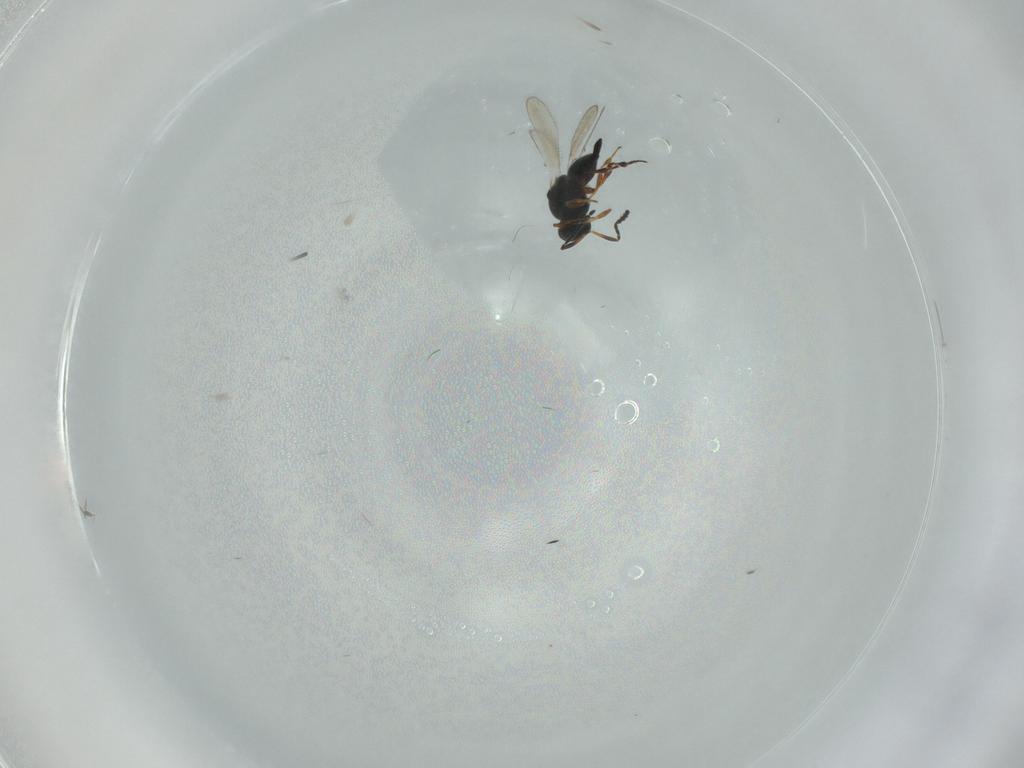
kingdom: Animalia
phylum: Arthropoda
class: Insecta
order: Hymenoptera
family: Platygastridae
